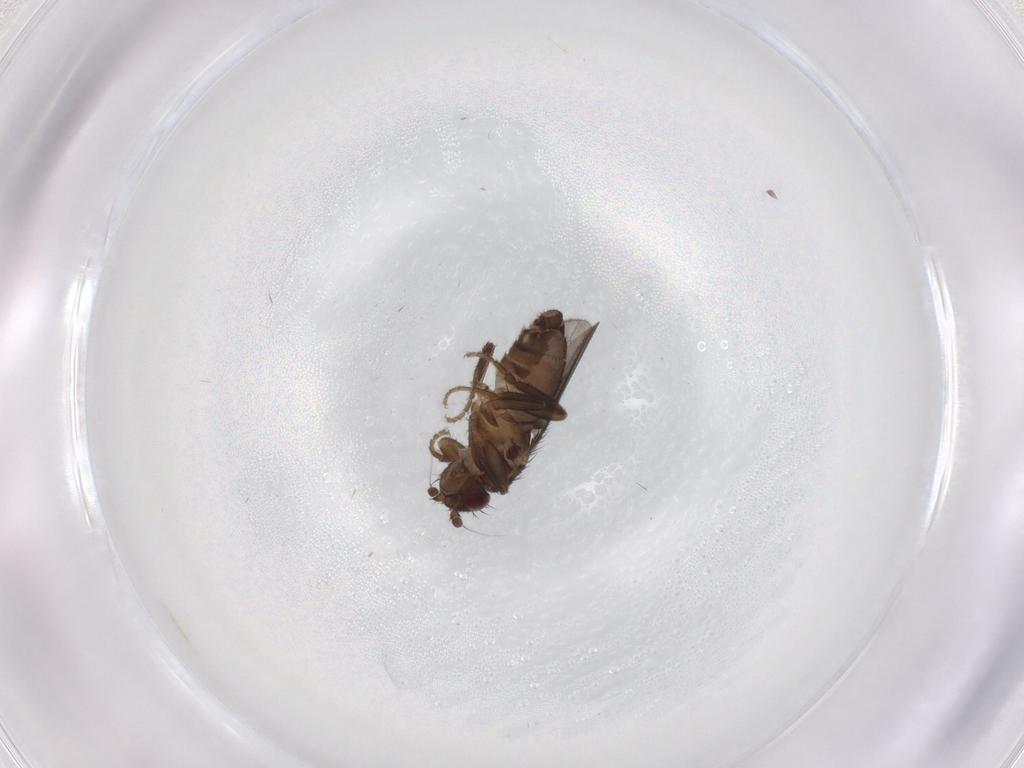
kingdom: Animalia
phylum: Arthropoda
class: Insecta
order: Diptera
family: Sphaeroceridae
